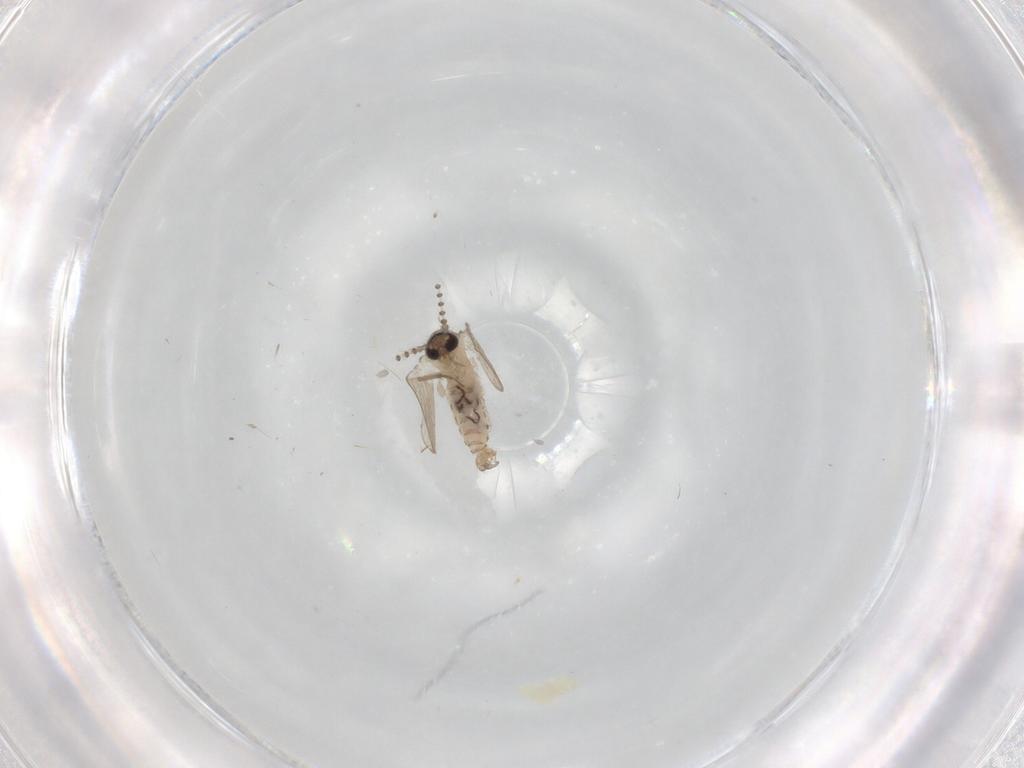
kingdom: Animalia
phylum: Arthropoda
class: Insecta
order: Diptera
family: Psychodidae
